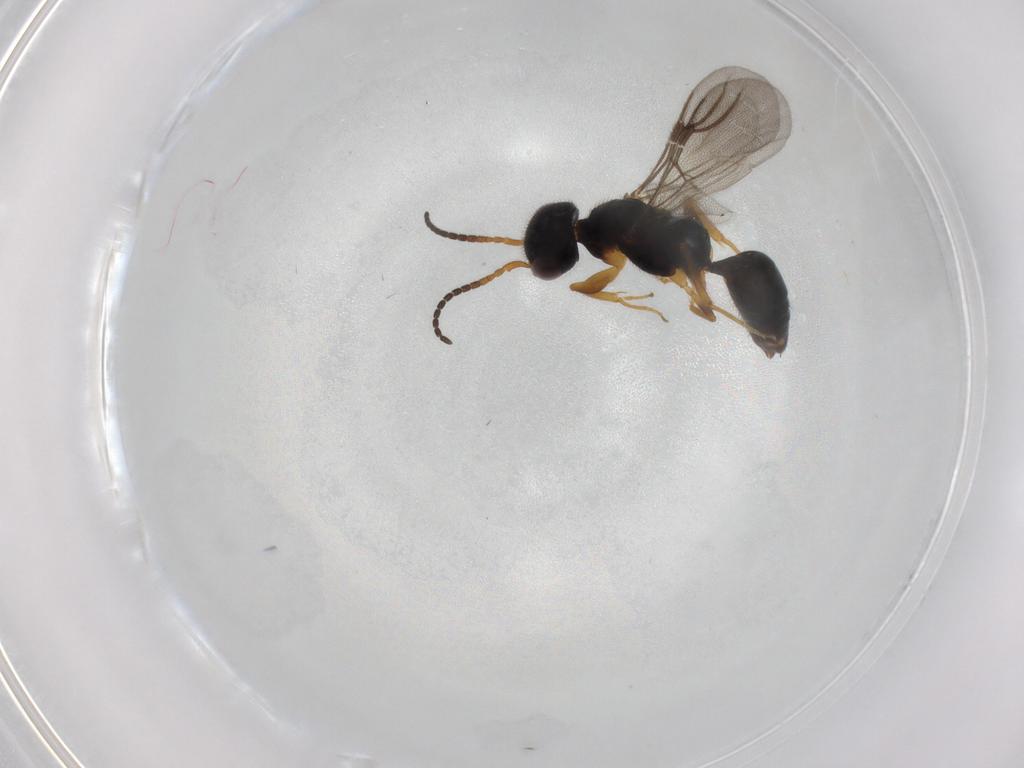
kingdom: Animalia
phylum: Arthropoda
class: Insecta
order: Hymenoptera
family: Bethylidae
